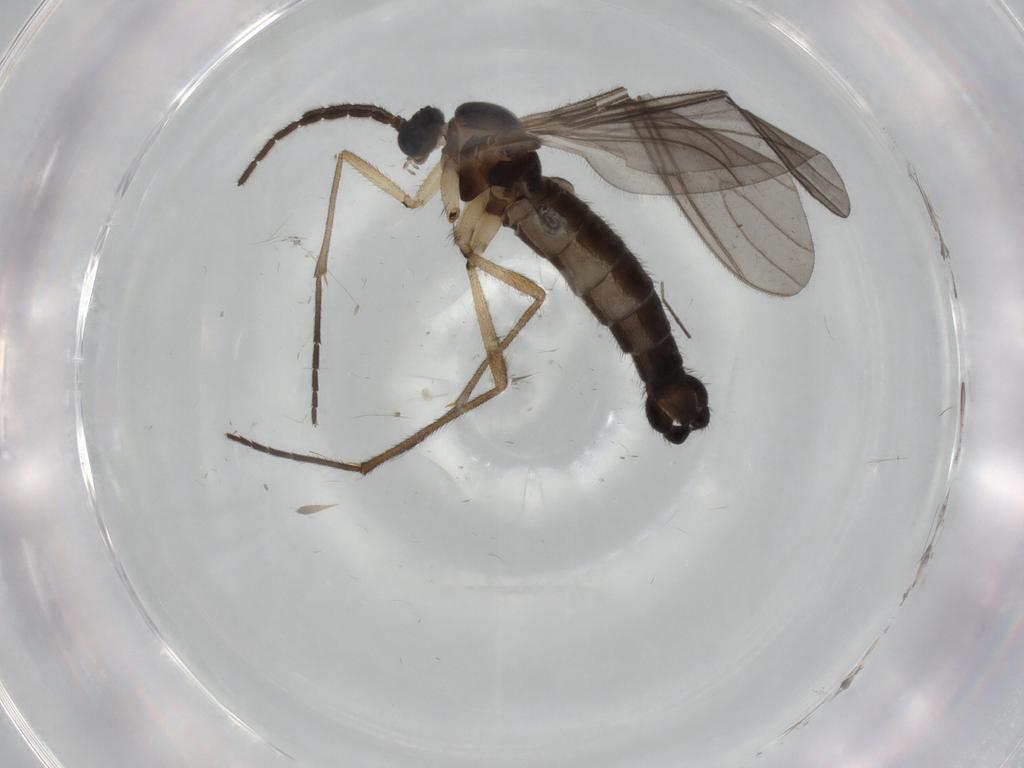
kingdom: Animalia
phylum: Arthropoda
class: Insecta
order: Diptera
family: Sciaridae
